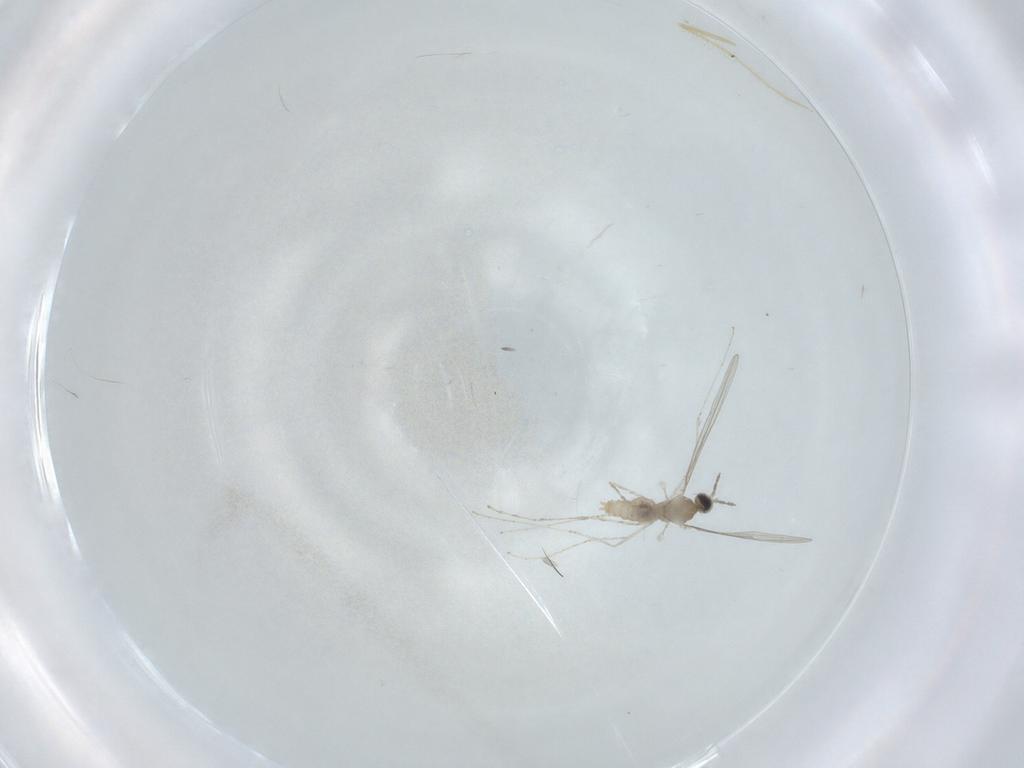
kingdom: Animalia
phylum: Arthropoda
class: Insecta
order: Diptera
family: Cecidomyiidae
